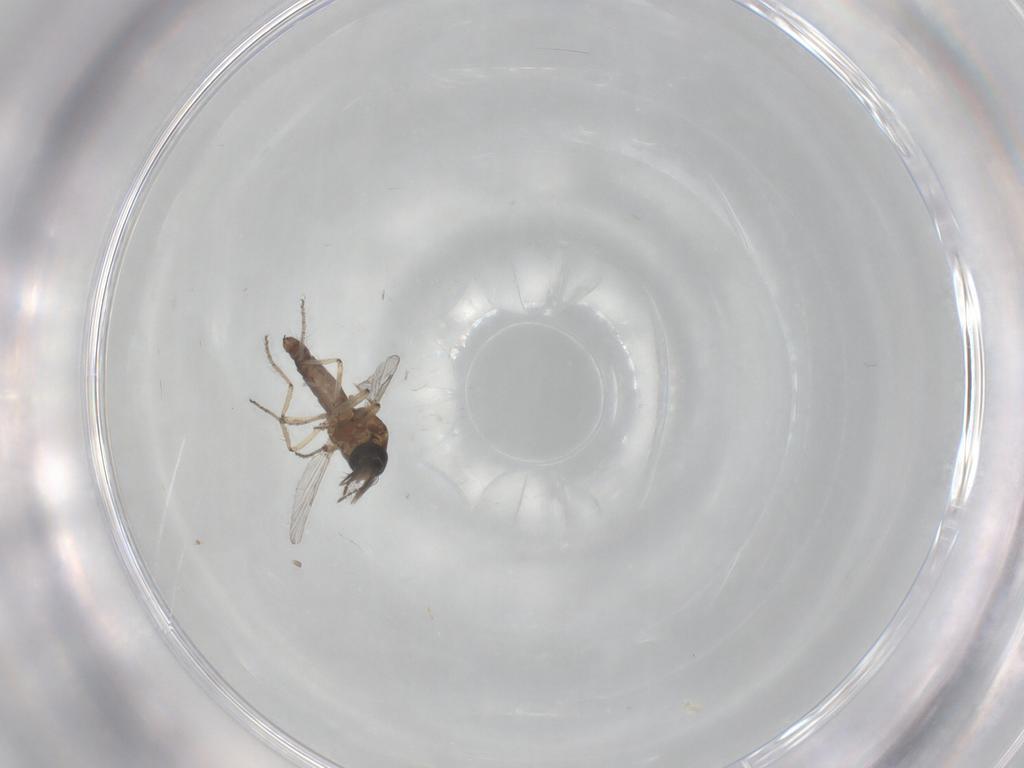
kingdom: Animalia
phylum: Arthropoda
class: Insecta
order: Diptera
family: Ceratopogonidae
